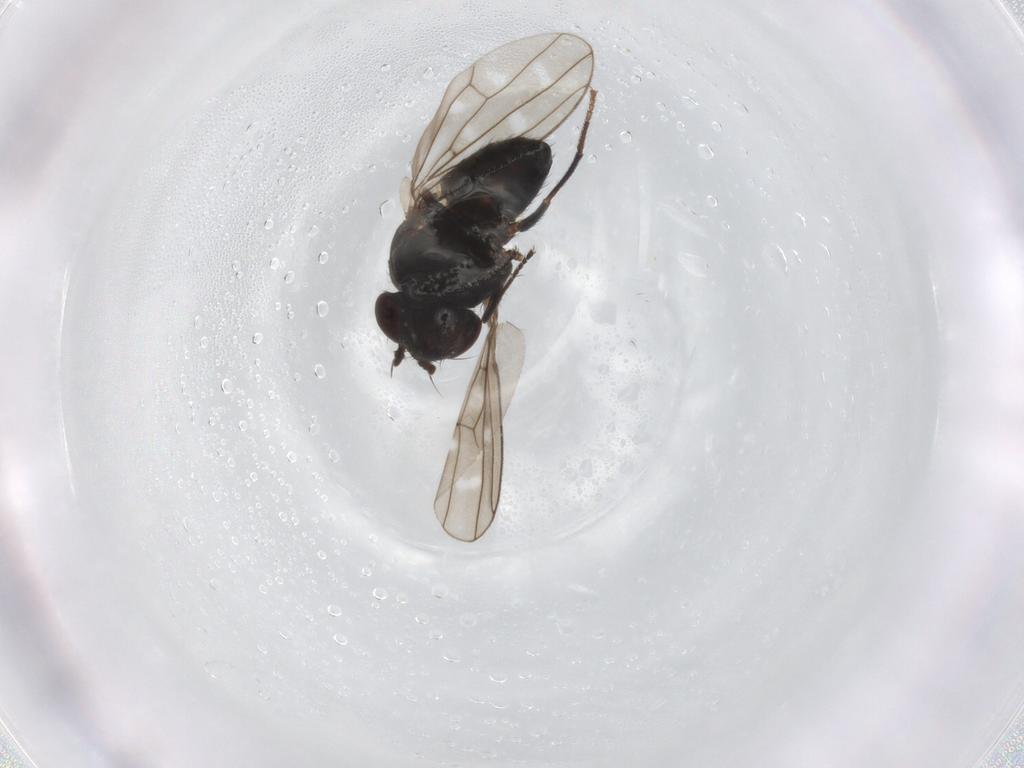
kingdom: Animalia
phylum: Arthropoda
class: Insecta
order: Diptera
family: Ephydridae
